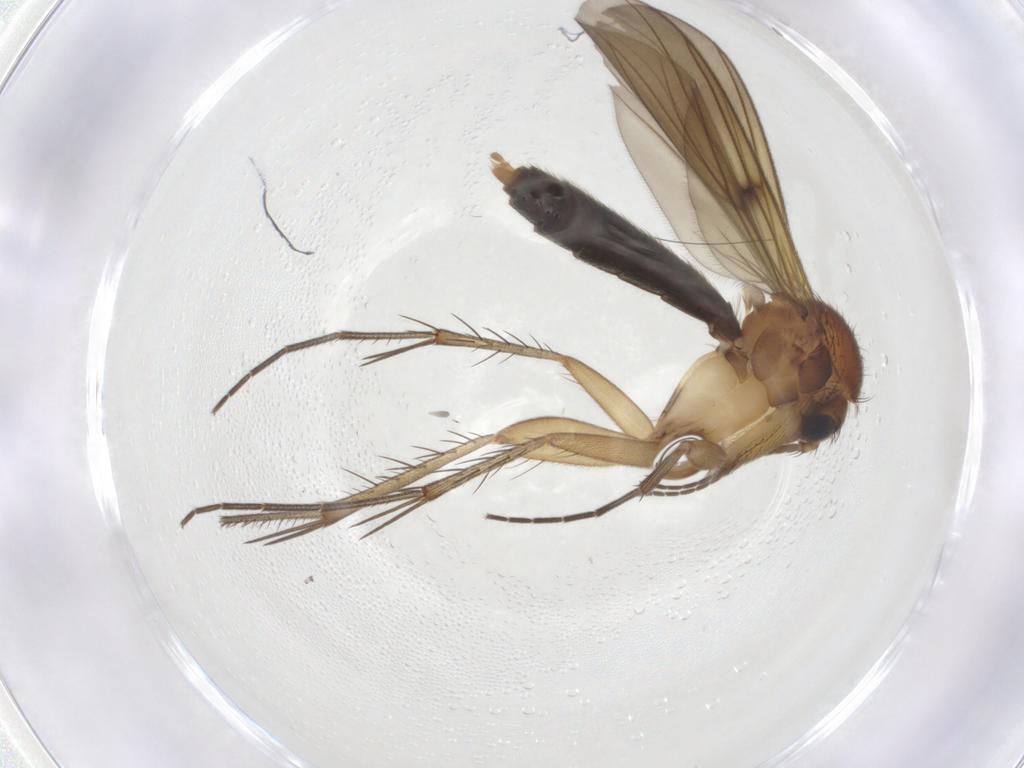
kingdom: Animalia
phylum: Arthropoda
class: Insecta
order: Diptera
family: Mycetophilidae
